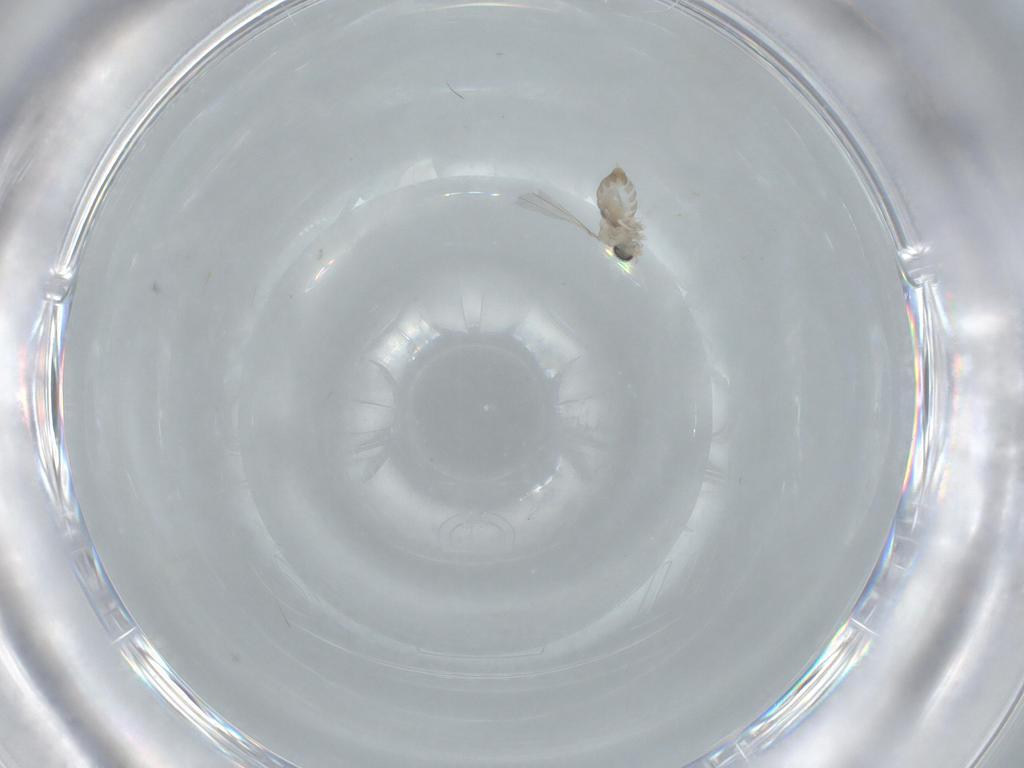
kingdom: Animalia
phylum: Arthropoda
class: Insecta
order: Diptera
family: Cecidomyiidae
